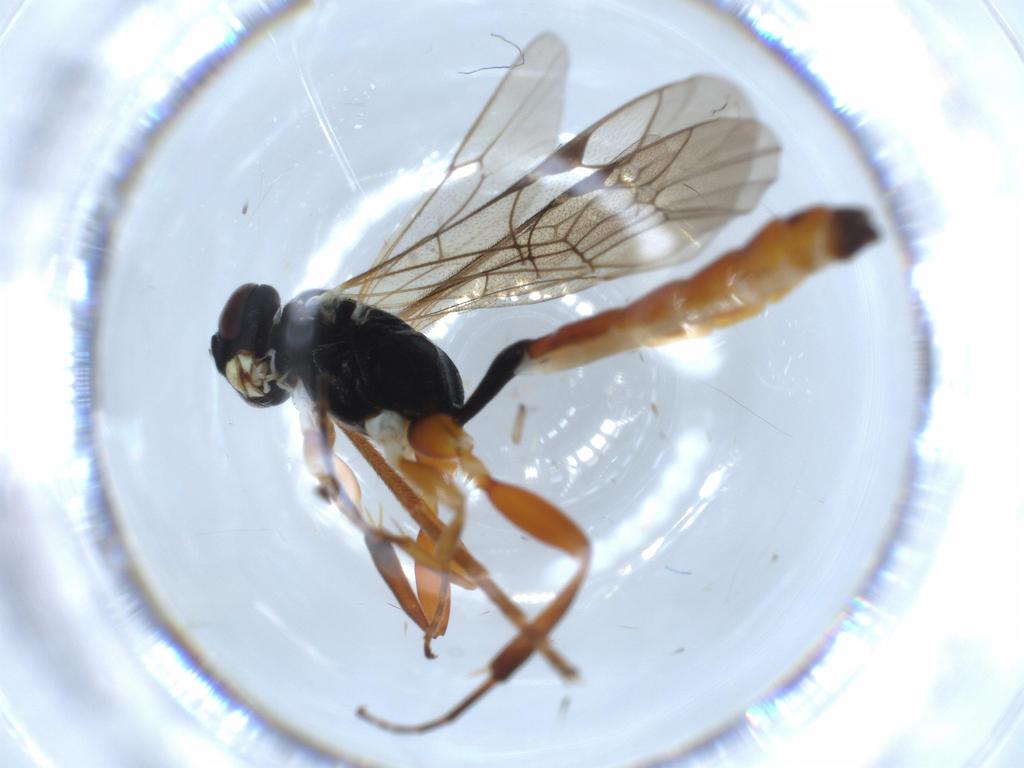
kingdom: Animalia
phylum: Arthropoda
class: Insecta
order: Hymenoptera
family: Ichneumonidae
